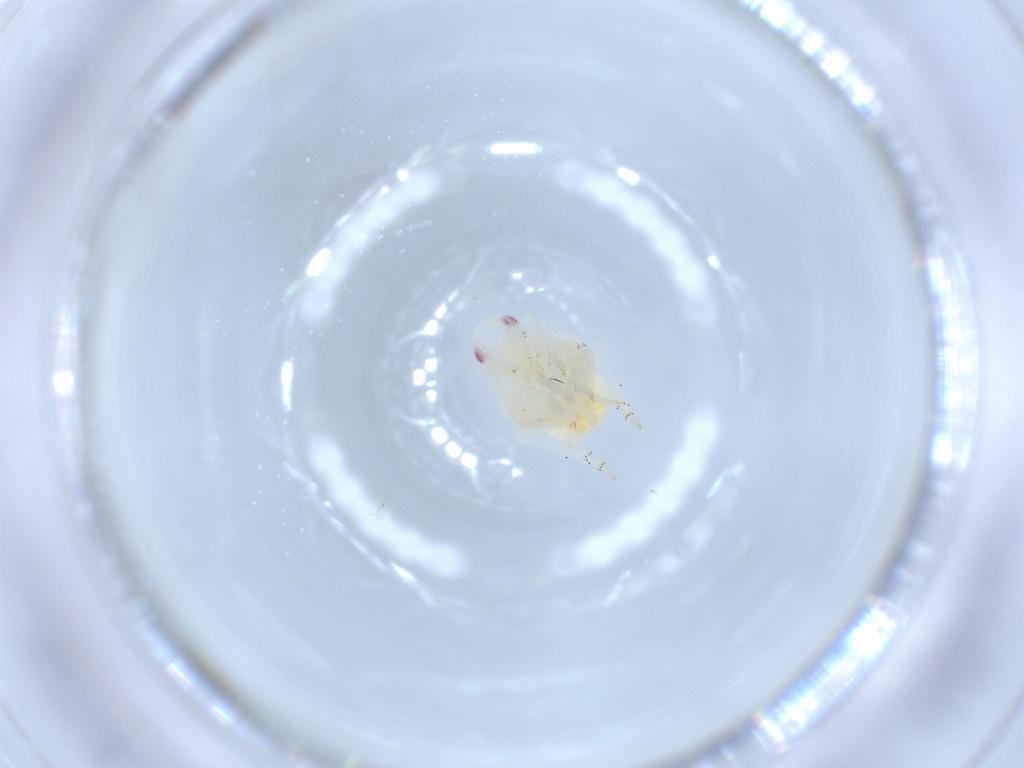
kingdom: Animalia
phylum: Arthropoda
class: Insecta
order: Hemiptera
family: Flatidae
